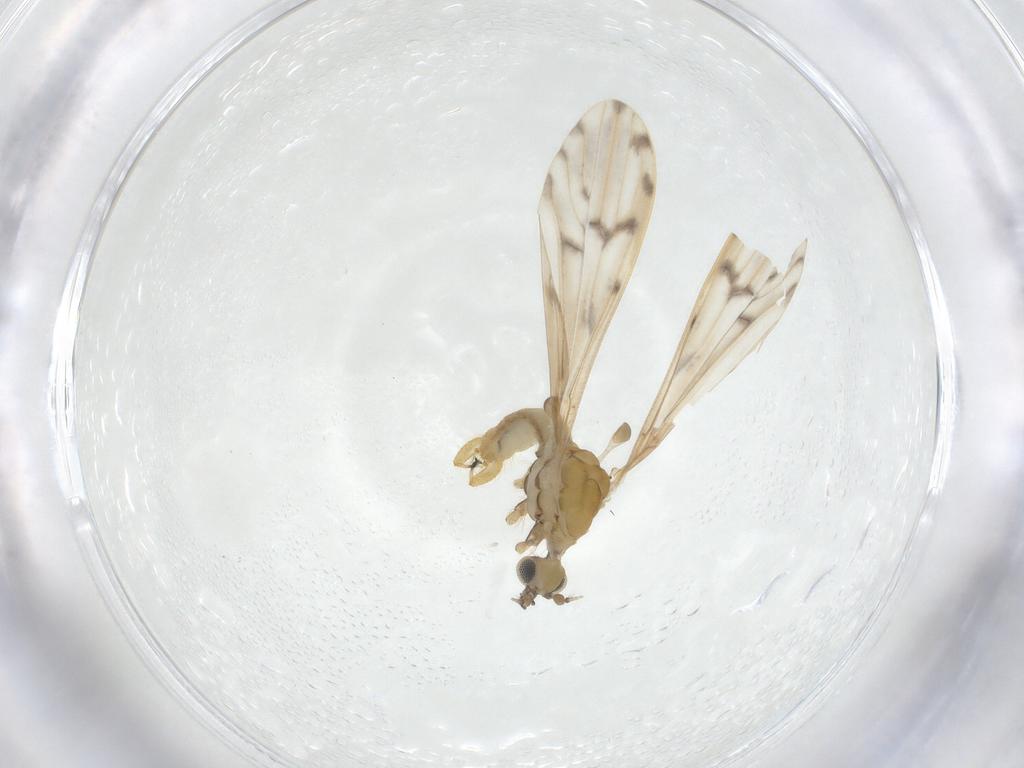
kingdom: Animalia
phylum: Arthropoda
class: Insecta
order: Diptera
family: Limoniidae
